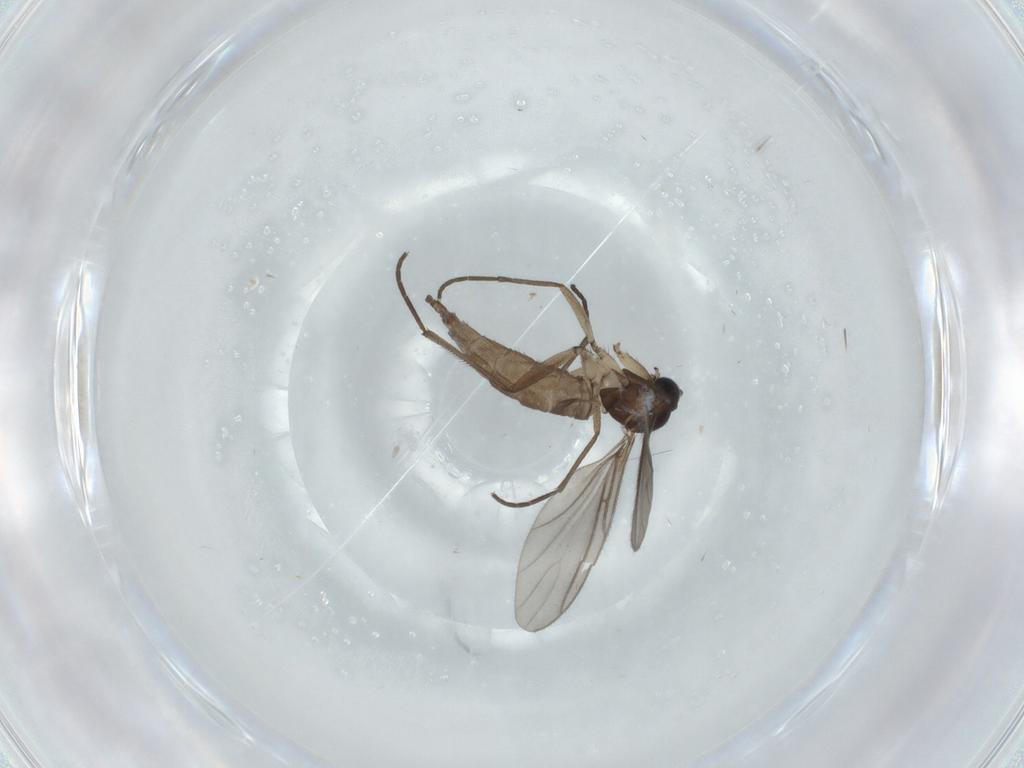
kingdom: Animalia
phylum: Arthropoda
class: Insecta
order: Diptera
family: Sciaridae
